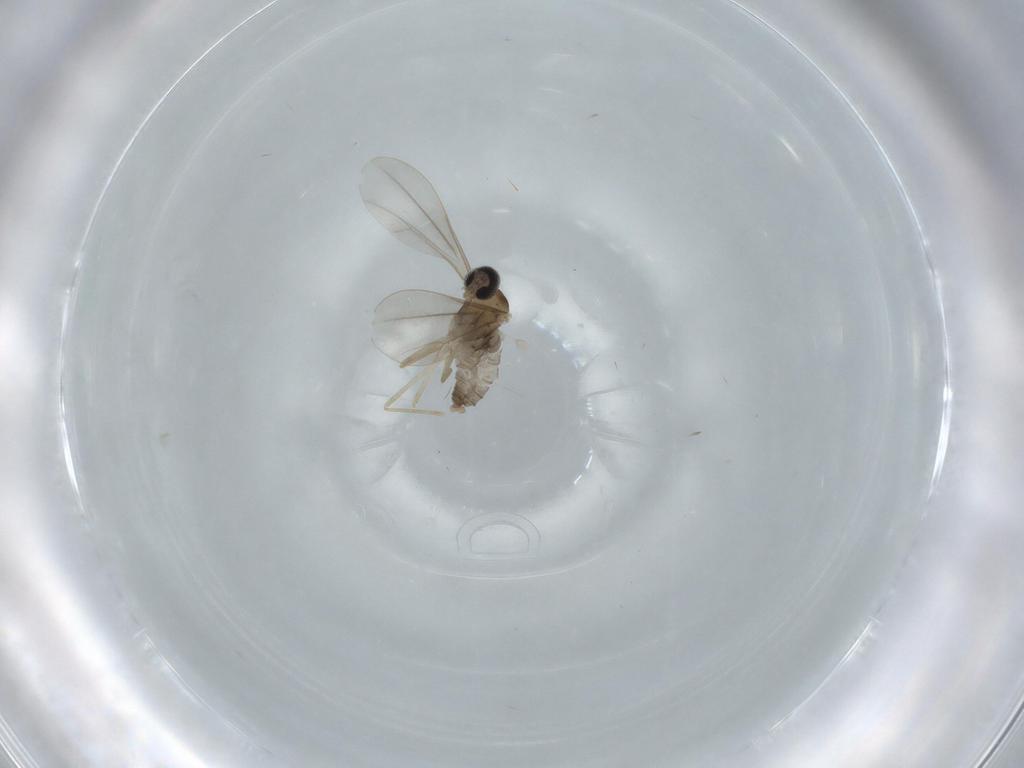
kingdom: Animalia
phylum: Arthropoda
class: Insecta
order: Diptera
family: Cecidomyiidae
